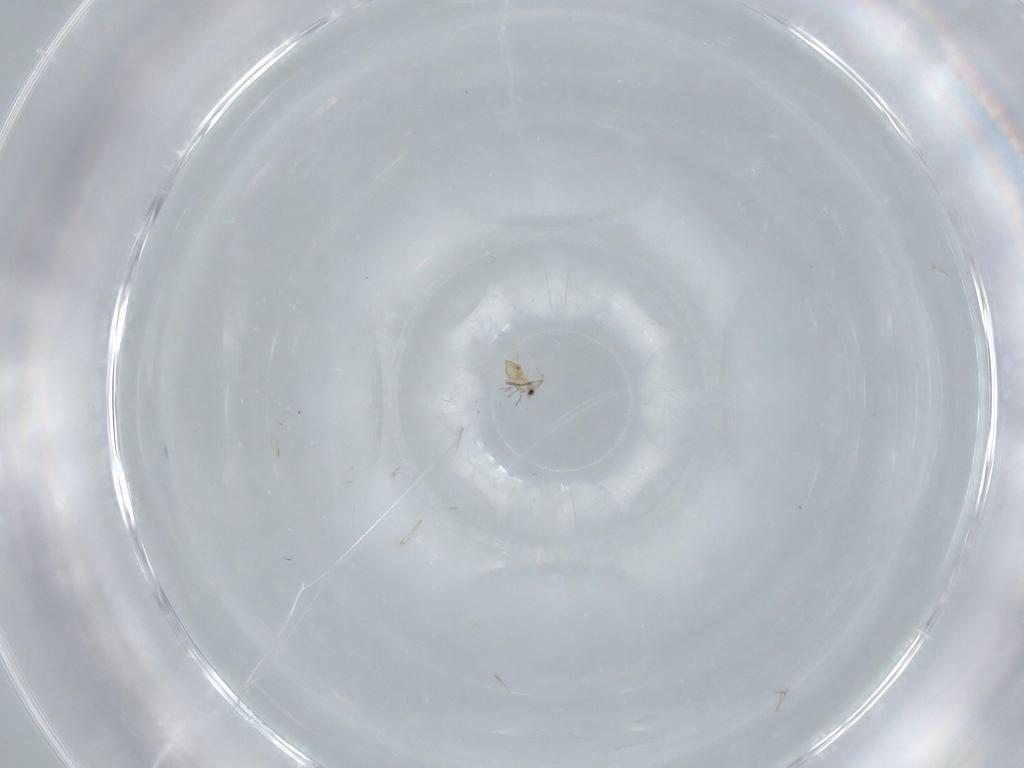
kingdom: Animalia
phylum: Arthropoda
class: Insecta
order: Hymenoptera
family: Mymaridae
